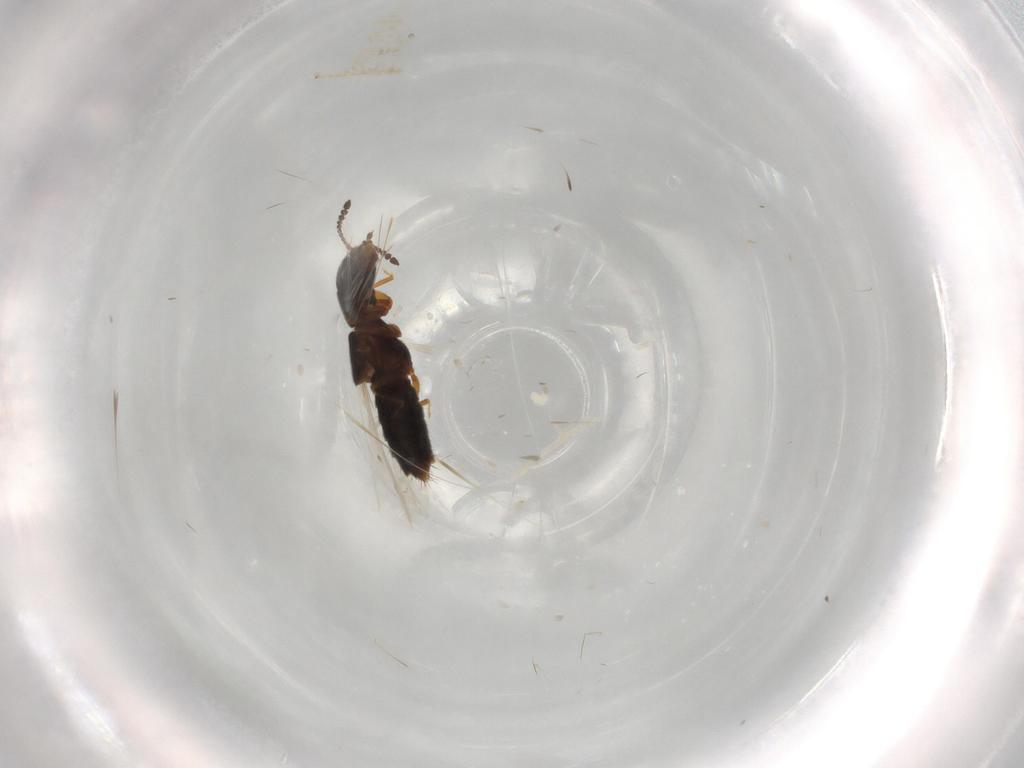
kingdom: Animalia
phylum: Arthropoda
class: Insecta
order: Coleoptera
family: Staphylinidae
